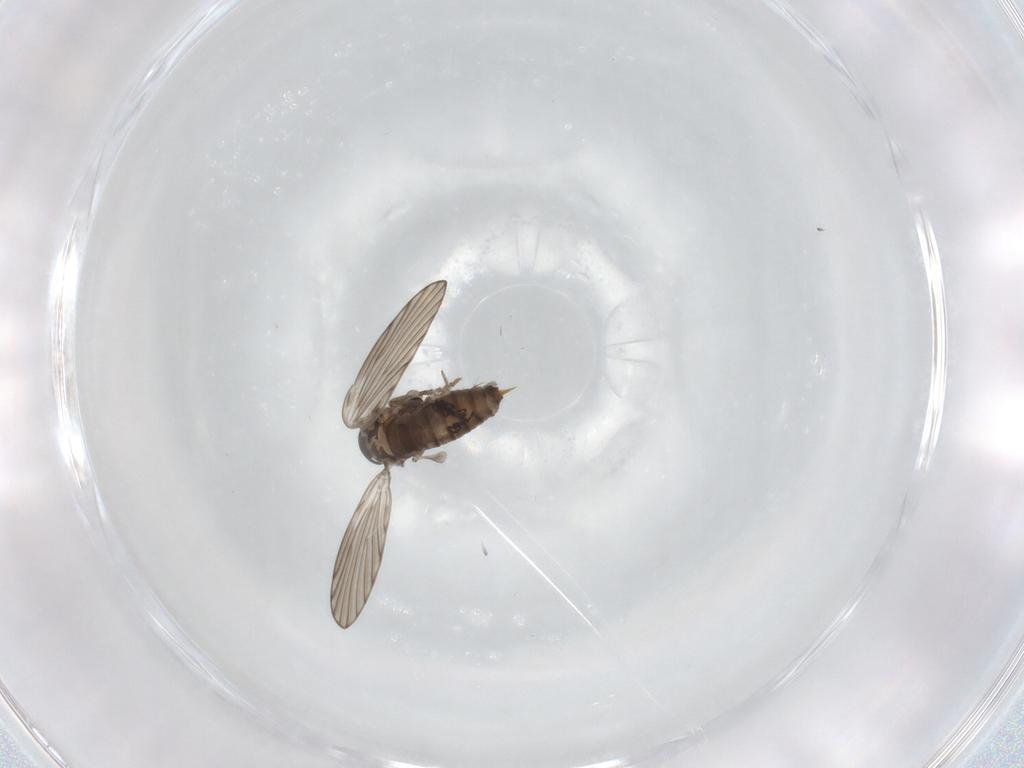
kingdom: Animalia
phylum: Arthropoda
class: Insecta
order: Diptera
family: Psychodidae
